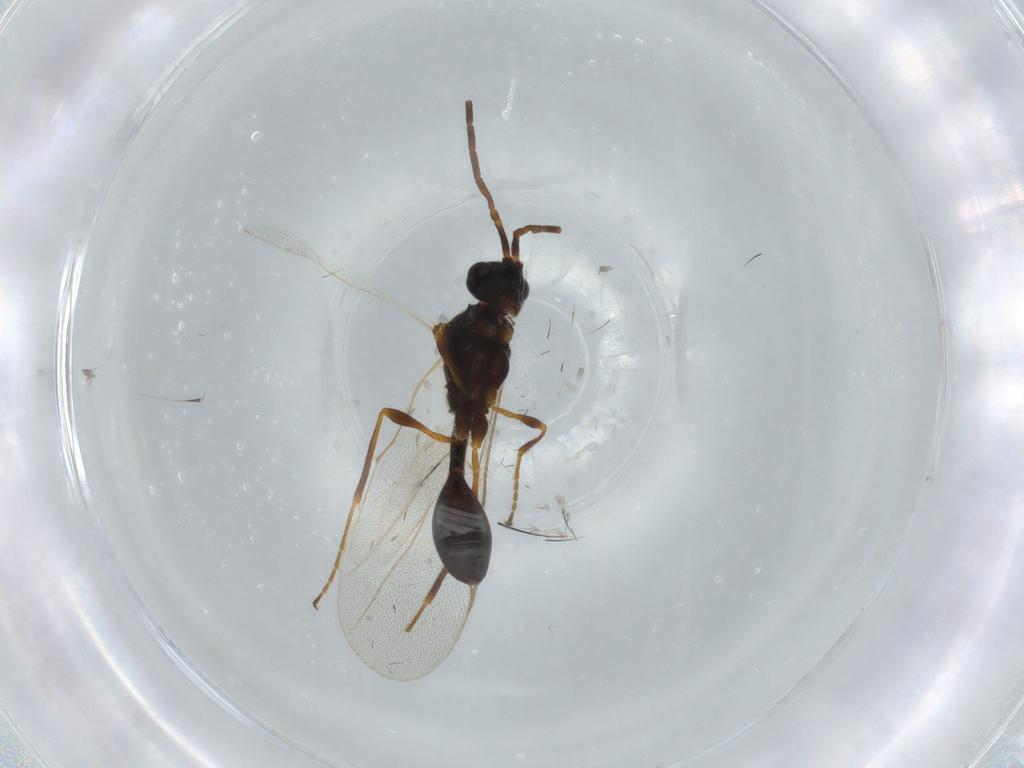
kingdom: Animalia
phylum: Arthropoda
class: Insecta
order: Hymenoptera
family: Diapriidae
